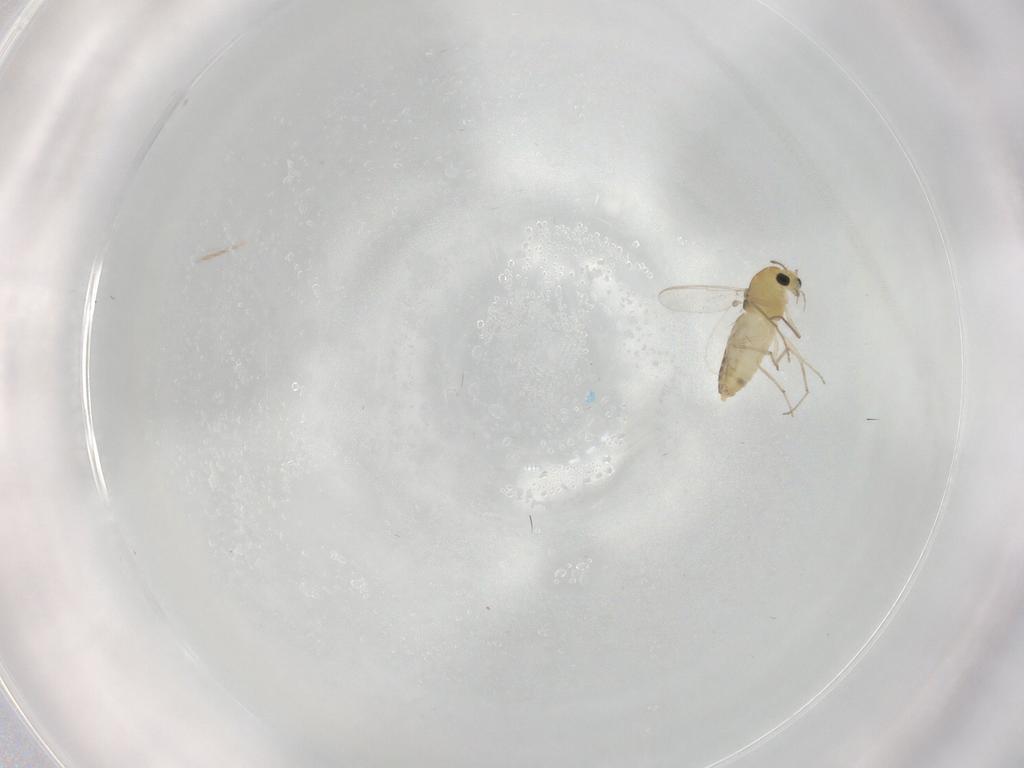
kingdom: Animalia
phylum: Arthropoda
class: Insecta
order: Diptera
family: Chironomidae
